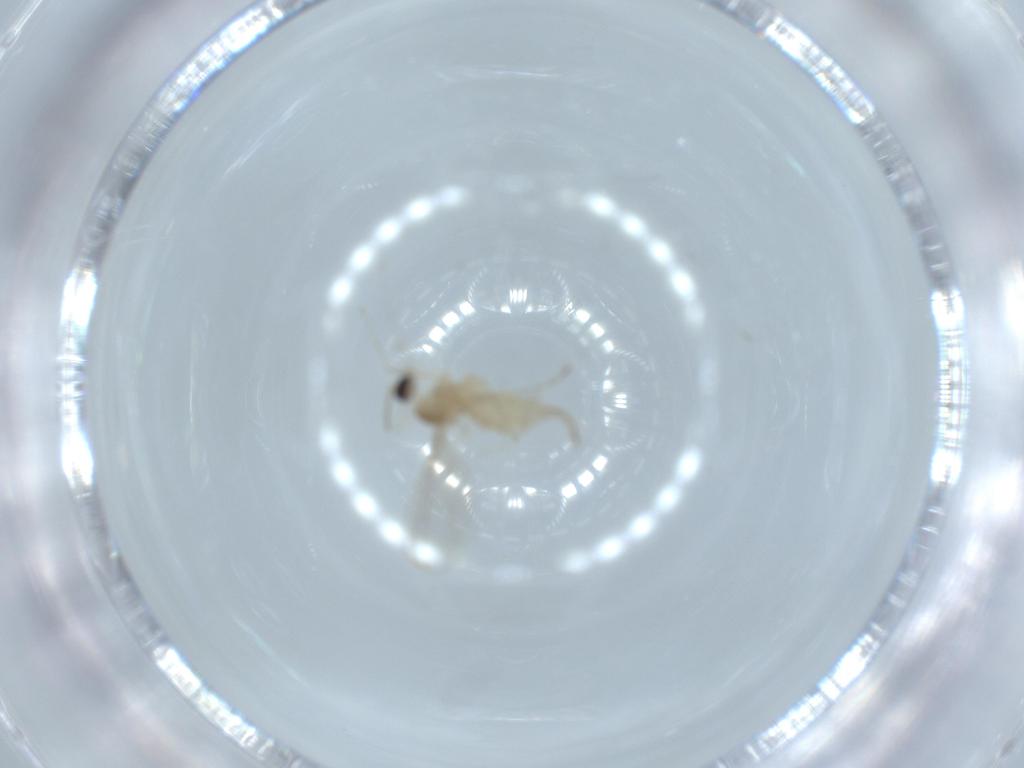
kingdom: Animalia
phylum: Arthropoda
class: Insecta
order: Diptera
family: Cecidomyiidae
